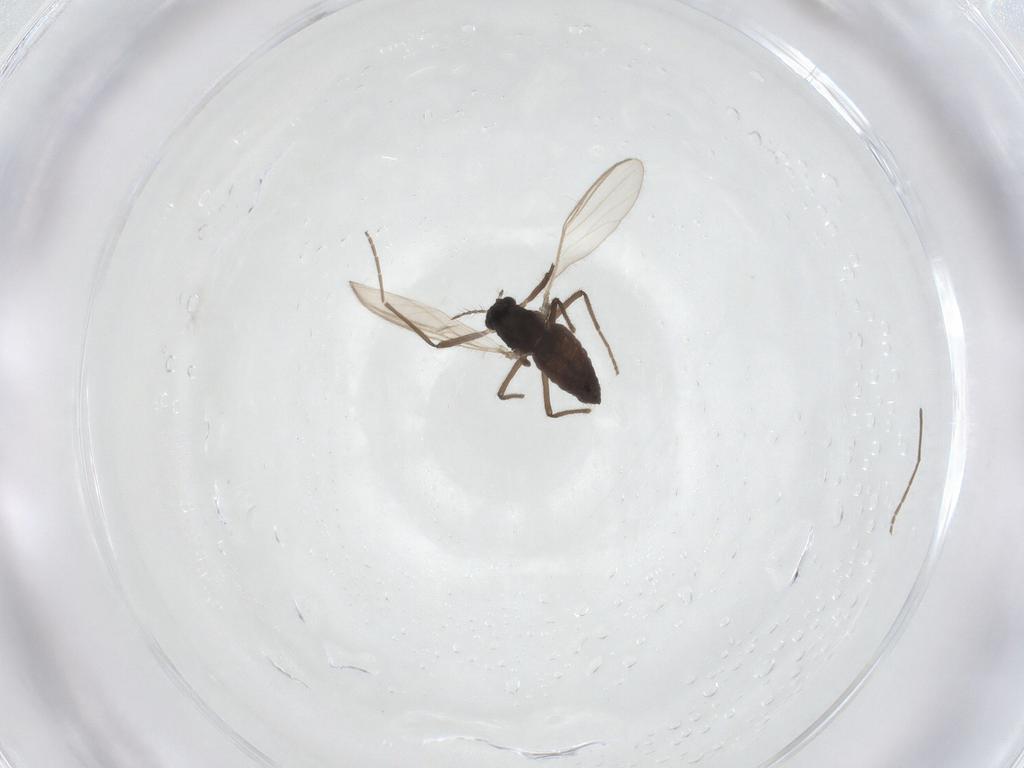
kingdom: Animalia
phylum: Arthropoda
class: Insecta
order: Diptera
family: Chironomidae
